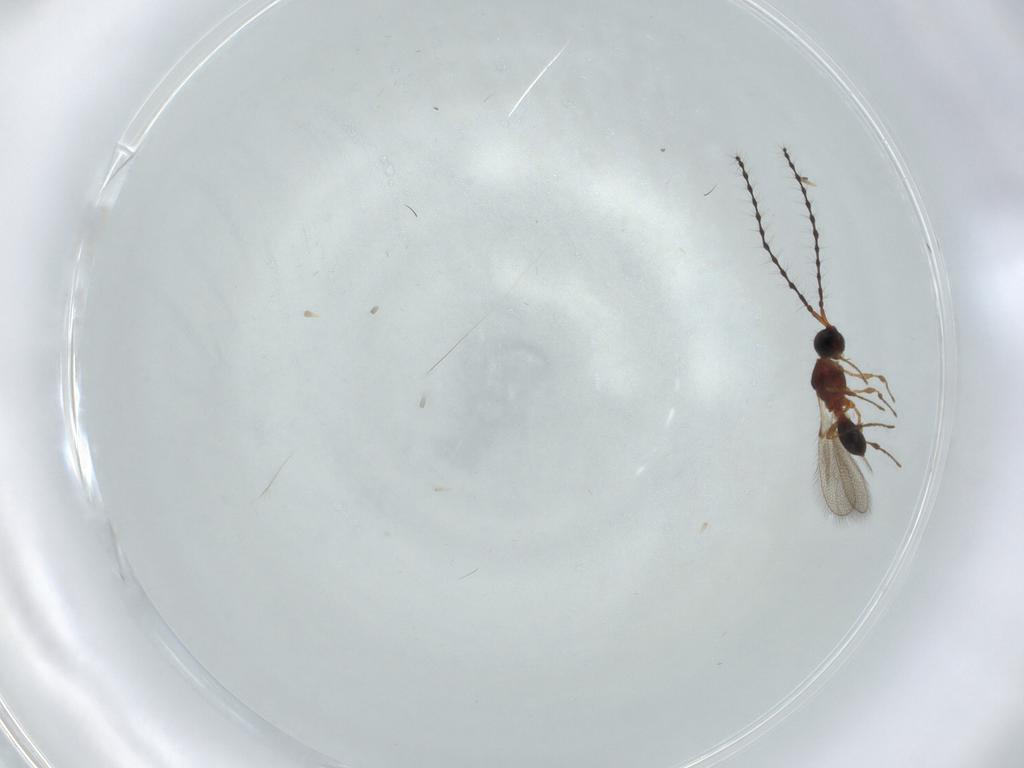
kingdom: Animalia
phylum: Arthropoda
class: Insecta
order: Hymenoptera
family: Diapriidae
